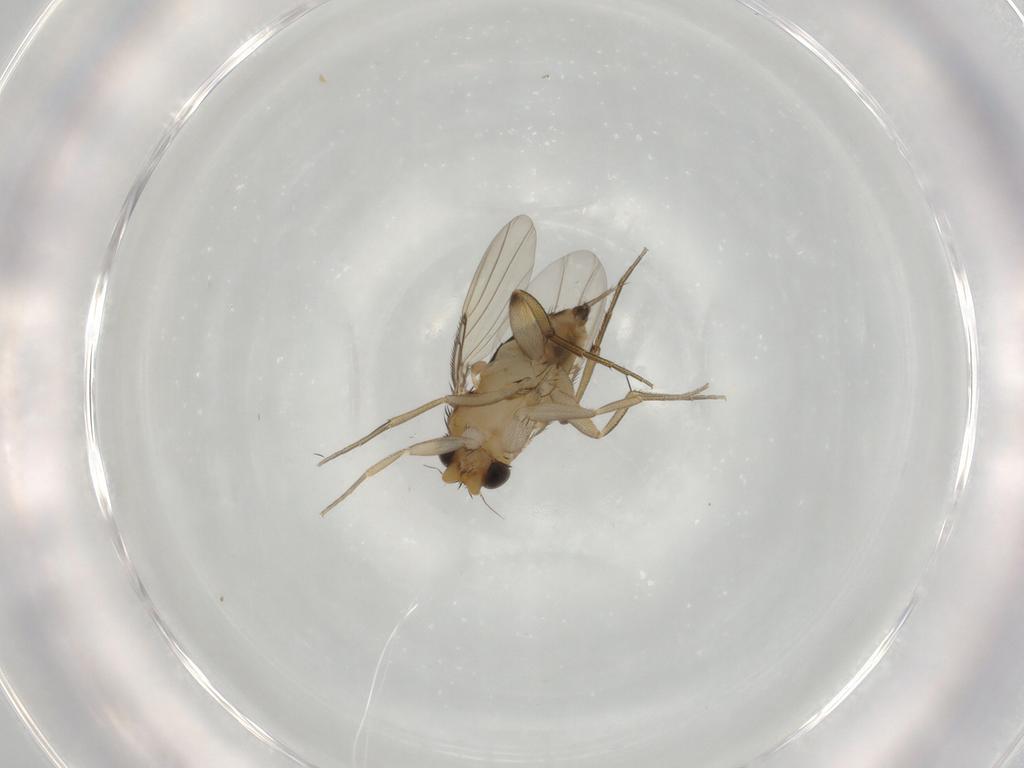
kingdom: Animalia
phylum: Arthropoda
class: Insecta
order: Diptera
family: Phoridae
